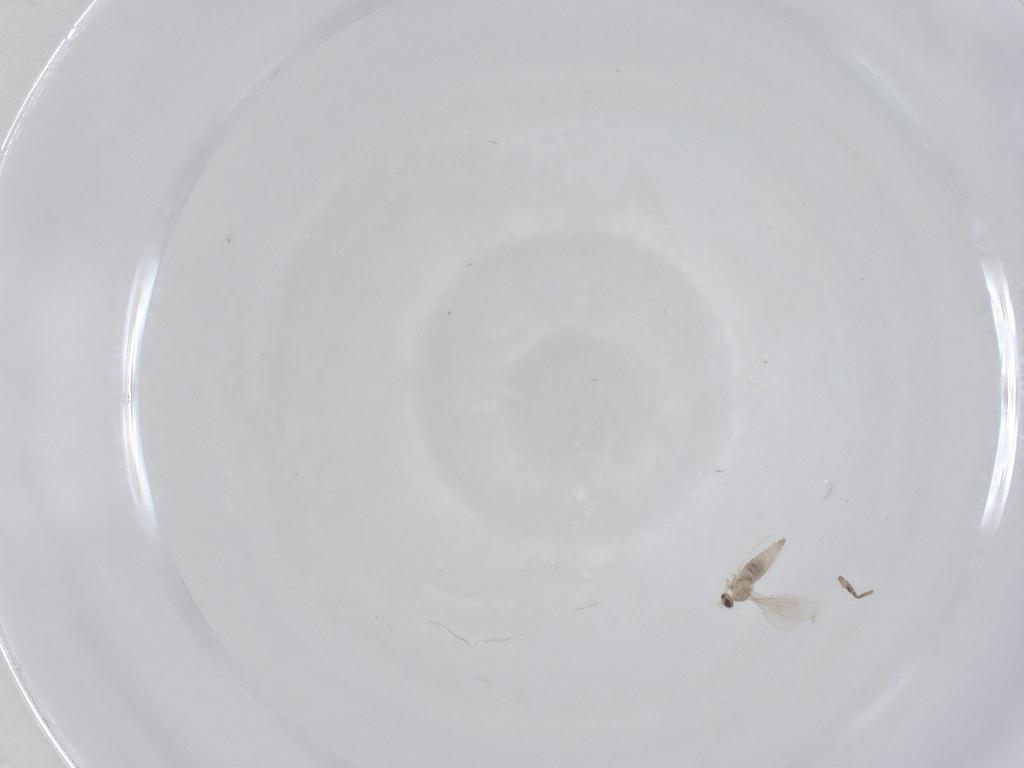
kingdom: Animalia
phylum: Arthropoda
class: Insecta
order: Diptera
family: Cecidomyiidae
